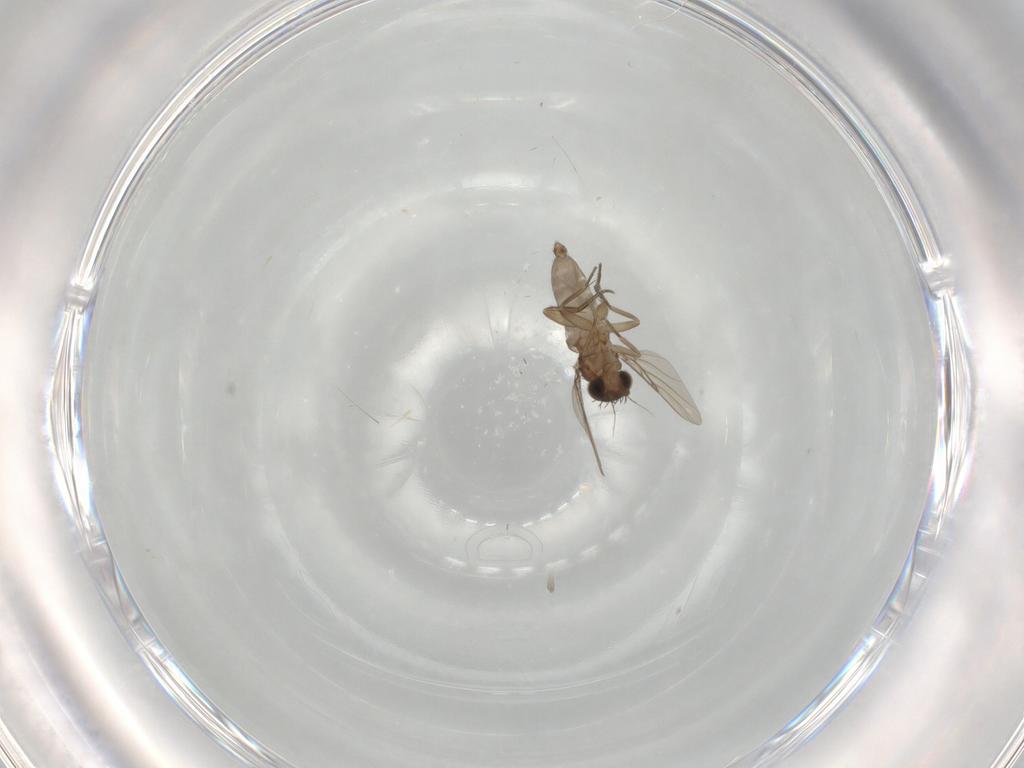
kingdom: Animalia
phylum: Arthropoda
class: Insecta
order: Diptera
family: Phoridae
